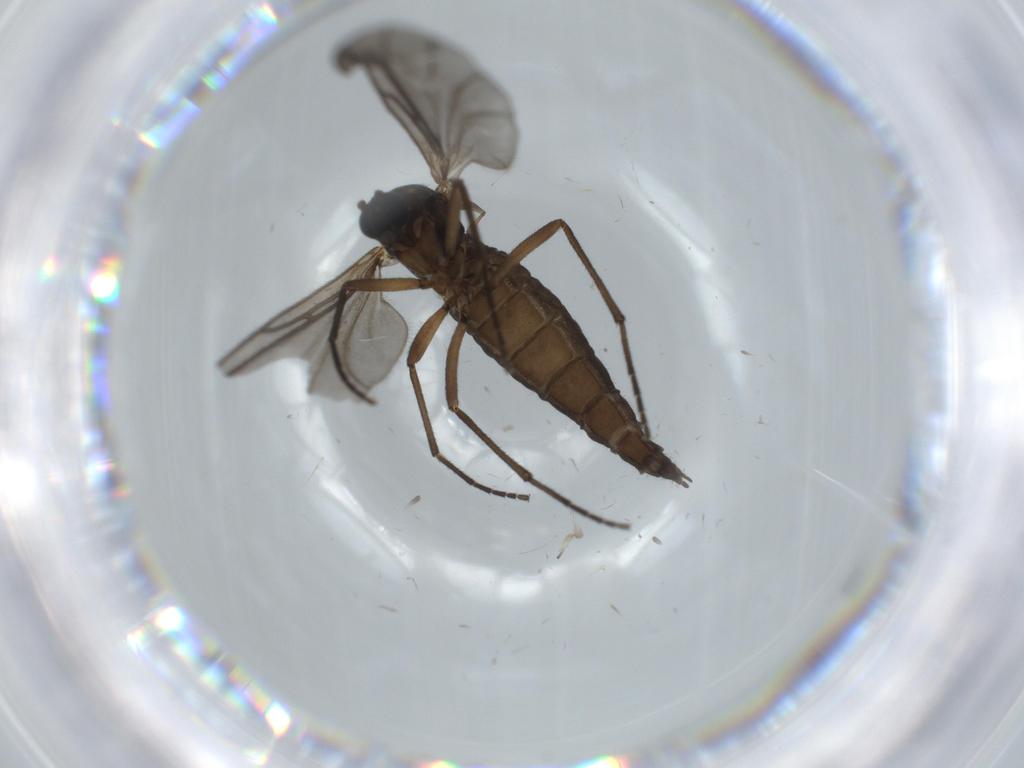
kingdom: Animalia
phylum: Arthropoda
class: Insecta
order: Diptera
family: Sciaridae
